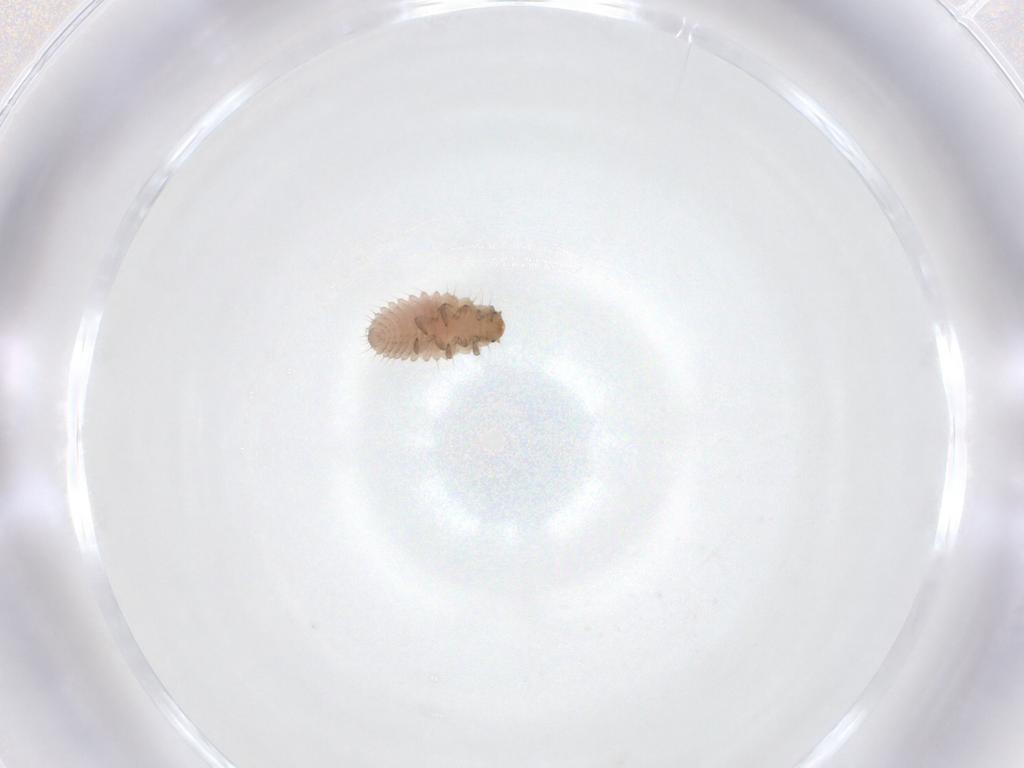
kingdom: Animalia
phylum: Arthropoda
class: Insecta
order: Coleoptera
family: Coccinellidae
